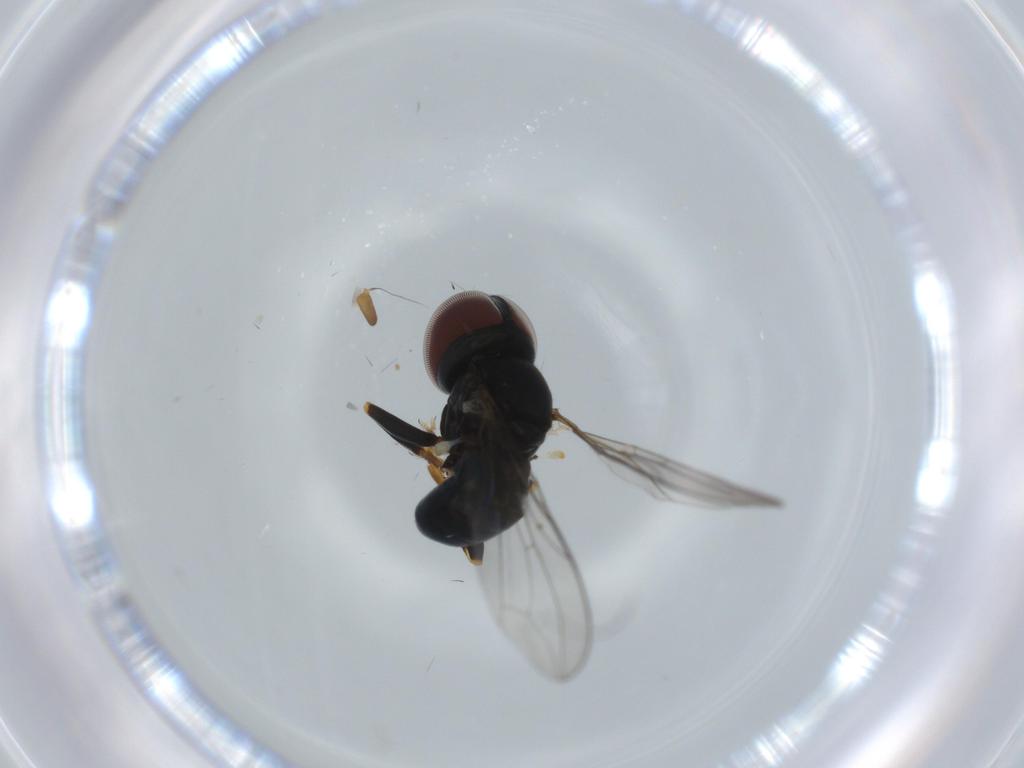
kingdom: Animalia
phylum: Arthropoda
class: Insecta
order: Diptera
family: Pipunculidae
